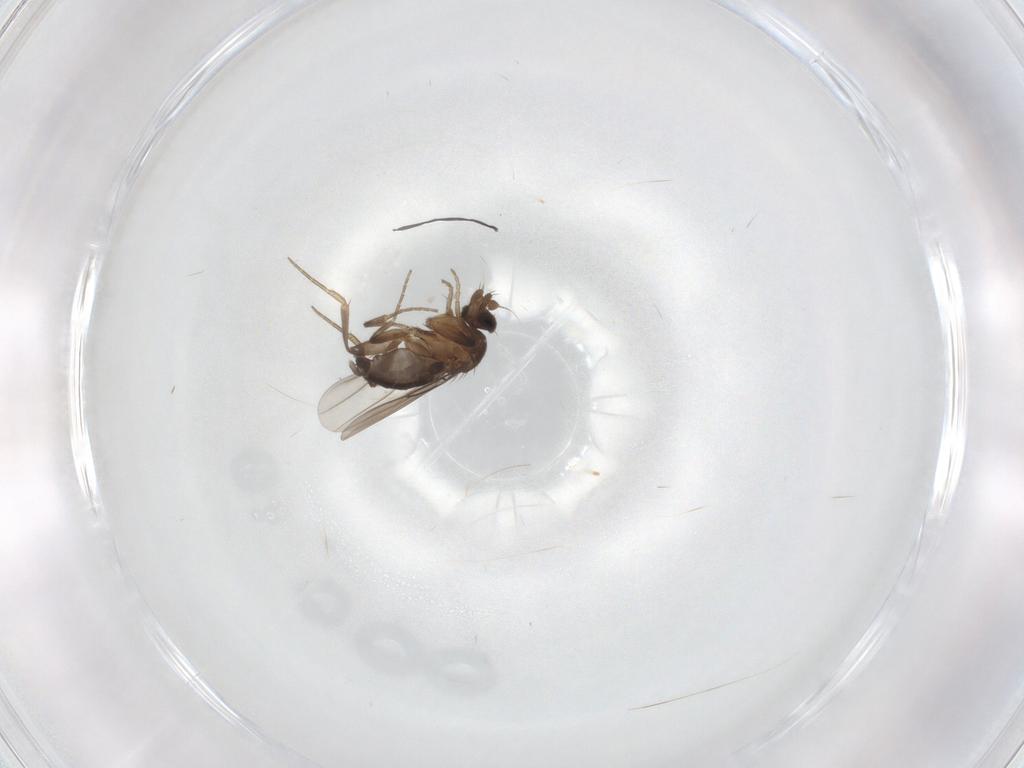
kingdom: Animalia
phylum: Arthropoda
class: Insecta
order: Diptera
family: Phoridae
